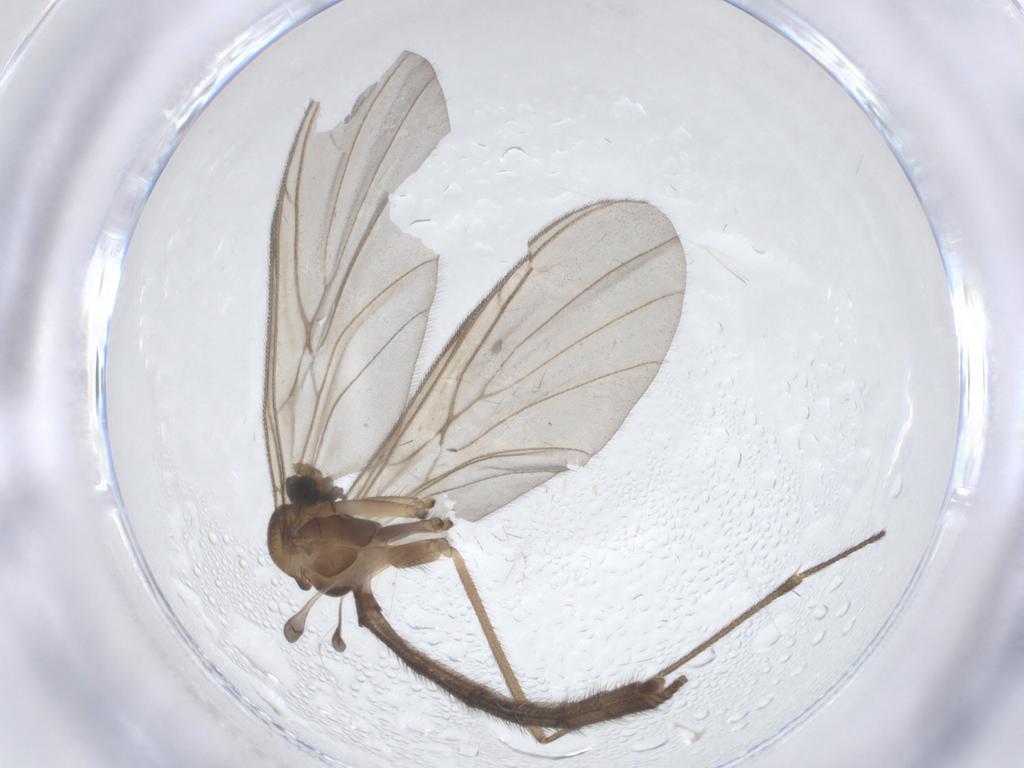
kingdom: Animalia
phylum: Arthropoda
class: Insecta
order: Diptera
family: Keroplatidae
